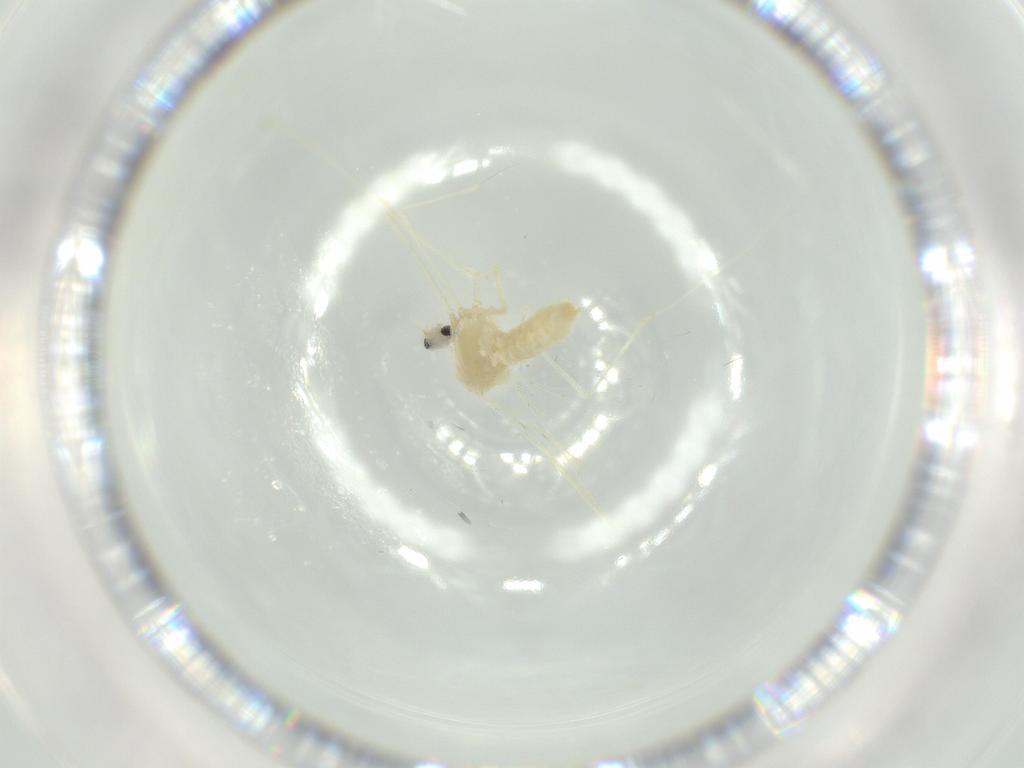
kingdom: Animalia
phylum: Arthropoda
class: Insecta
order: Diptera
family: Cecidomyiidae
